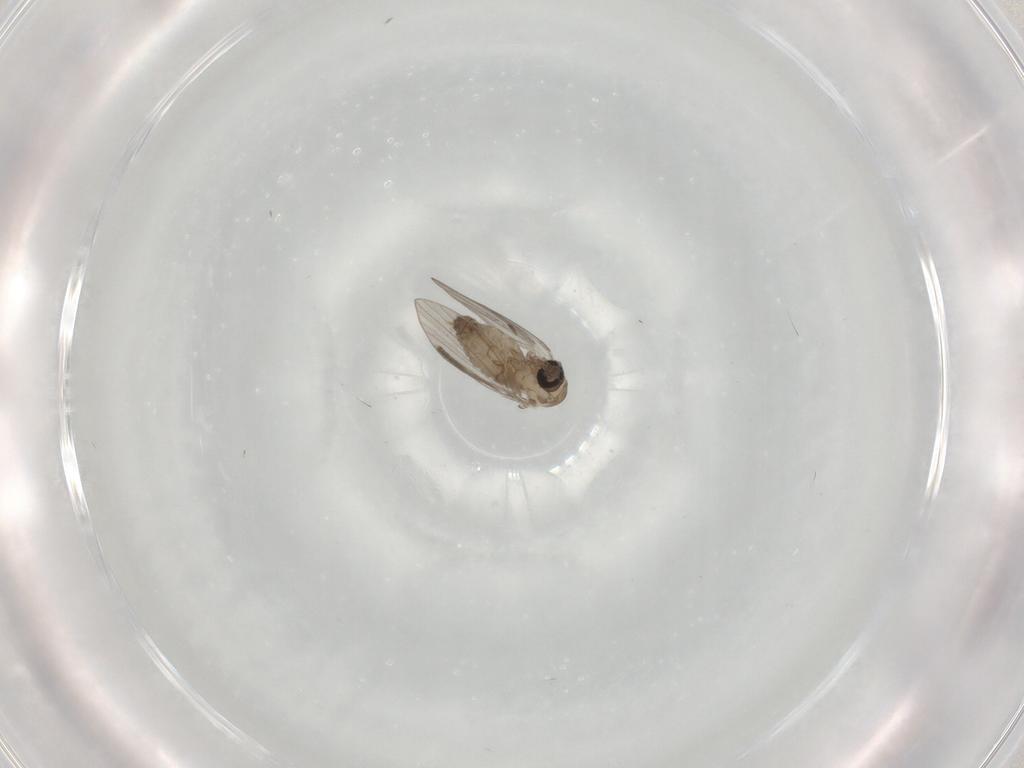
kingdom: Animalia
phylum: Arthropoda
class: Insecta
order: Diptera
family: Psychodidae
